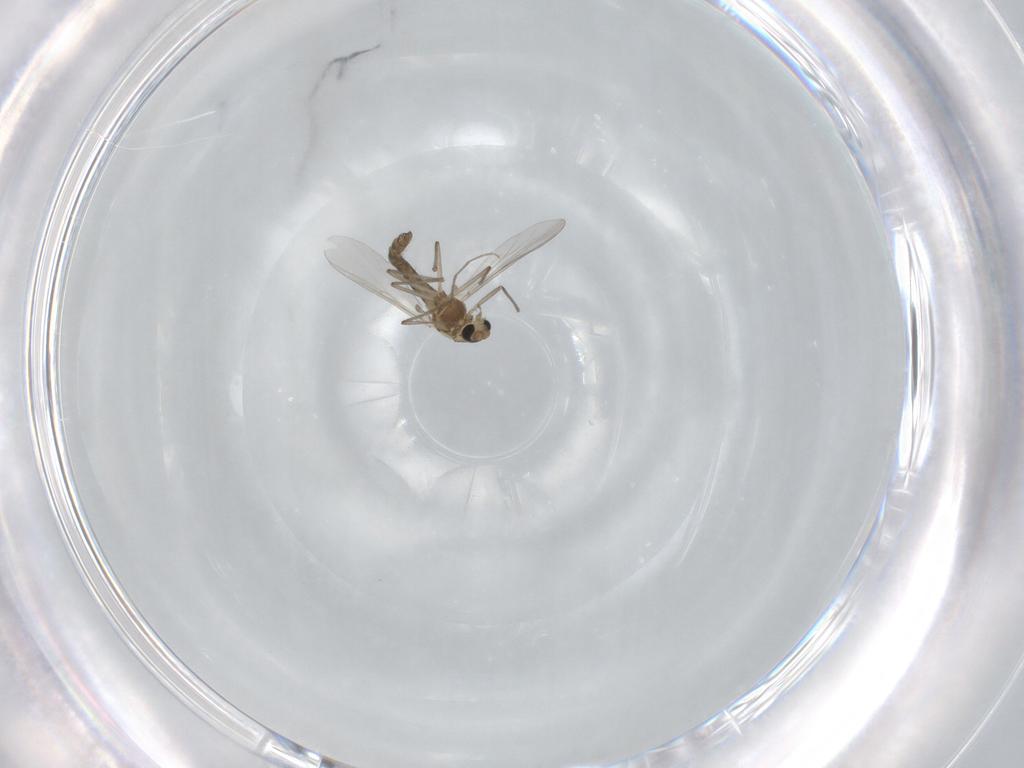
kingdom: Animalia
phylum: Arthropoda
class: Insecta
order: Diptera
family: Chironomidae
